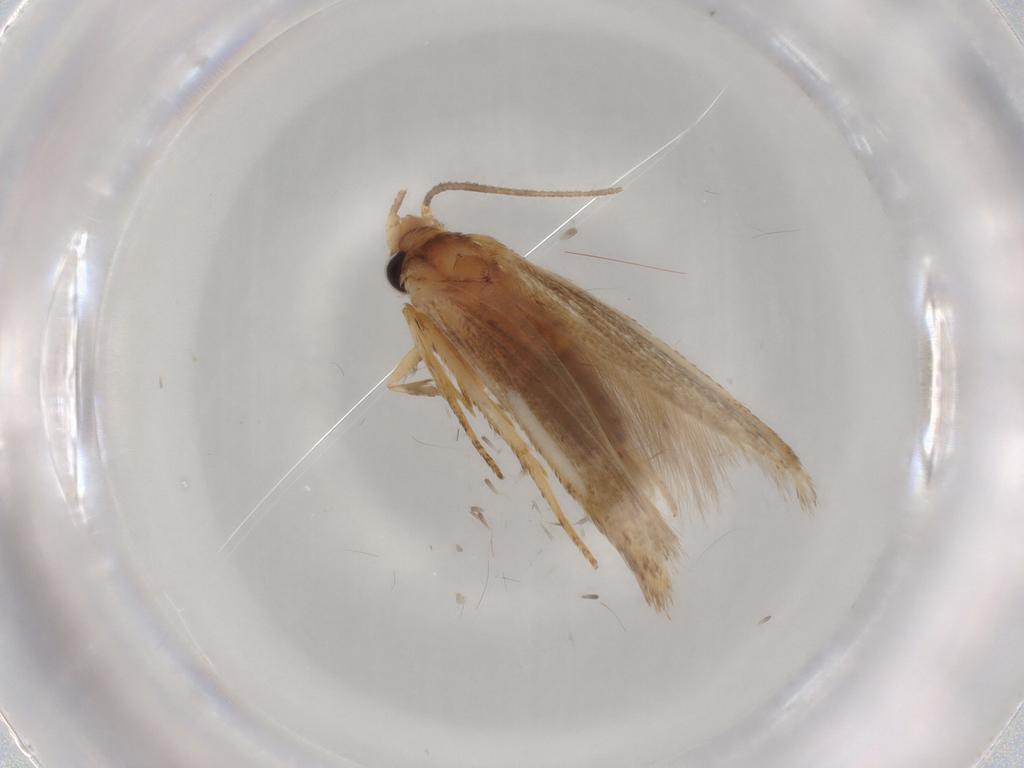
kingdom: Animalia
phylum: Arthropoda
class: Insecta
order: Lepidoptera
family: Blastobasidae
